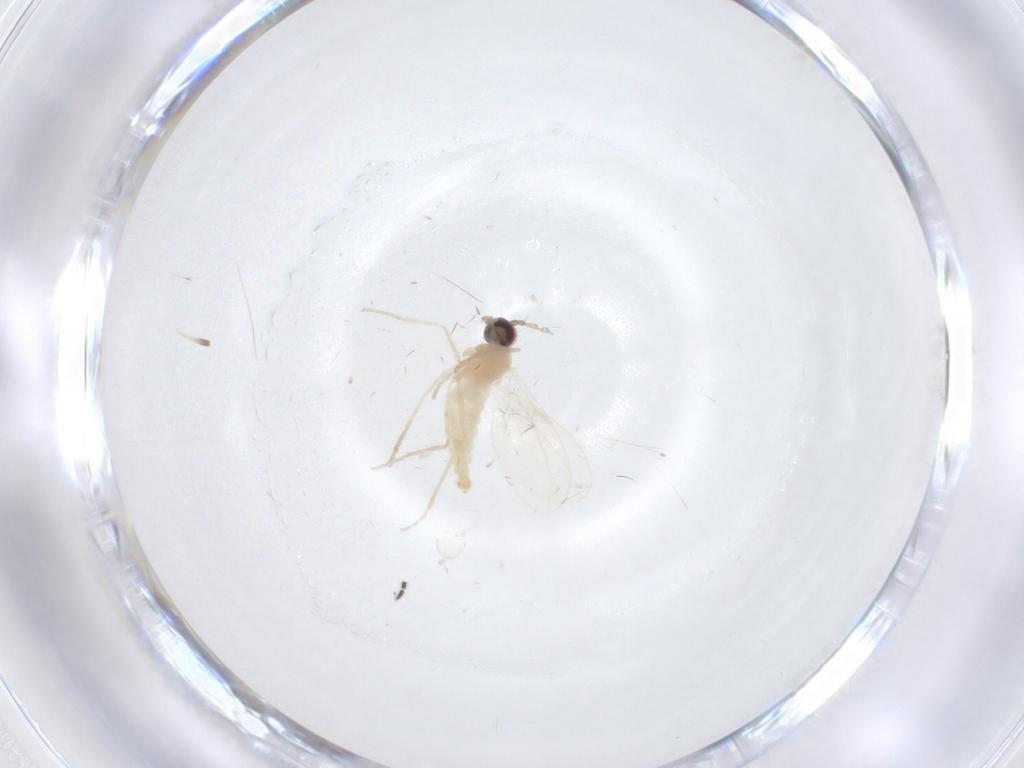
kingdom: Animalia
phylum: Arthropoda
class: Insecta
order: Diptera
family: Cecidomyiidae
